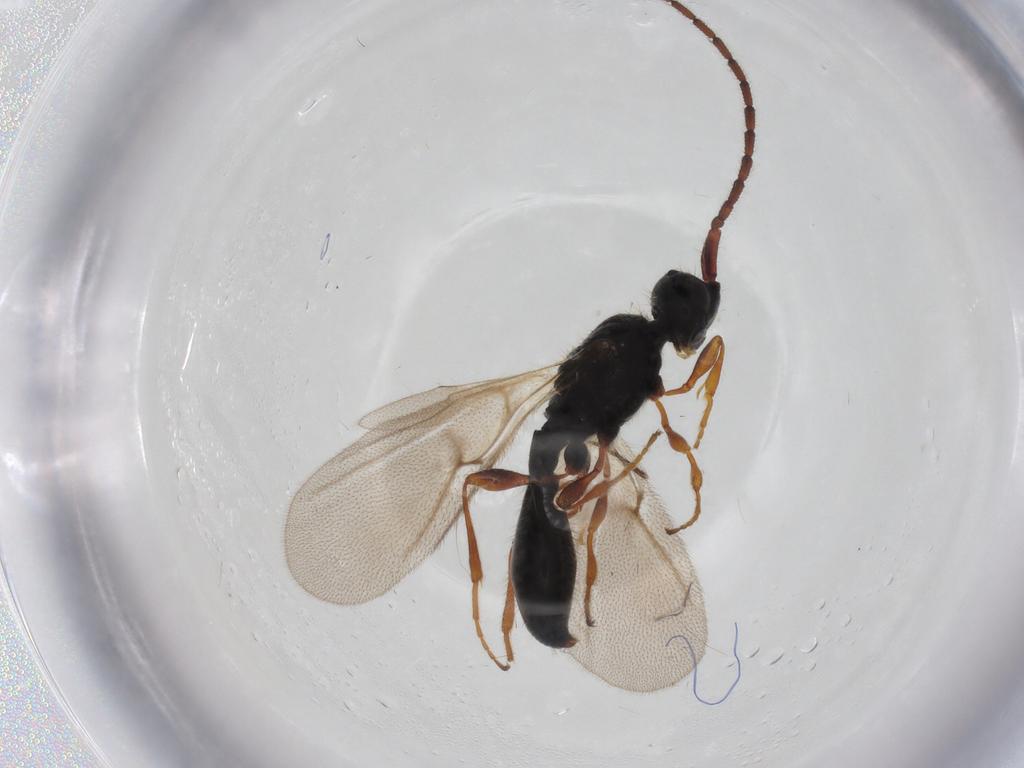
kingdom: Animalia
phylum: Arthropoda
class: Insecta
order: Hymenoptera
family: Diapriidae
